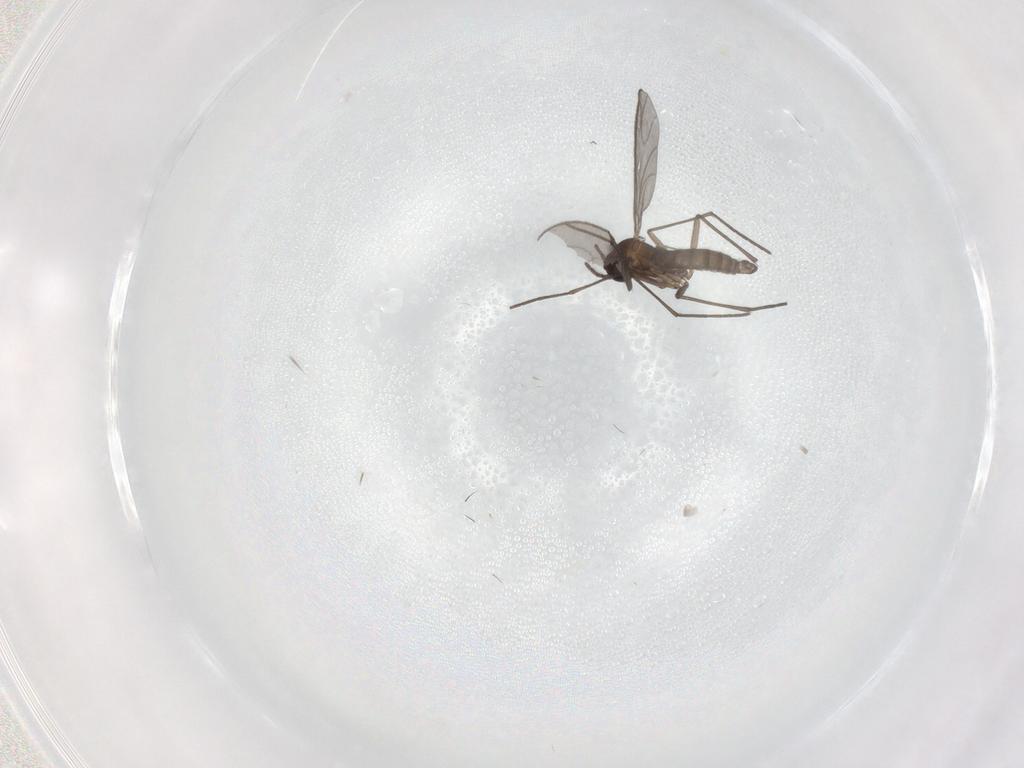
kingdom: Animalia
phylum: Arthropoda
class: Insecta
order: Diptera
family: Sciaridae
